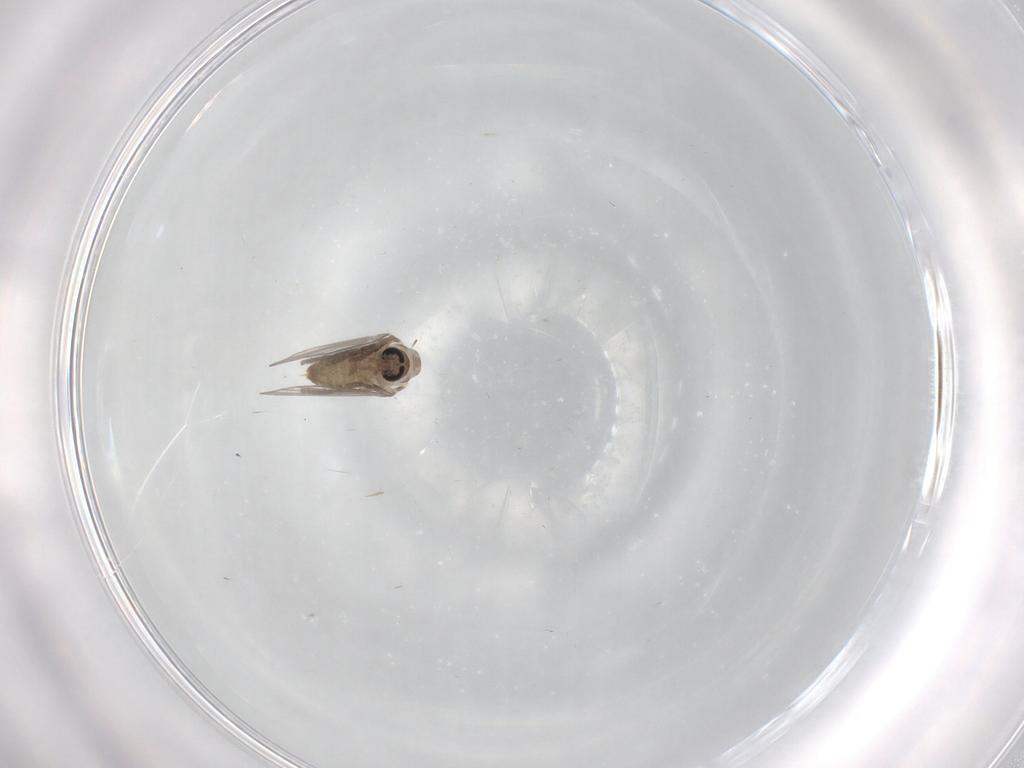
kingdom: Animalia
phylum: Arthropoda
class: Insecta
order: Diptera
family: Psychodidae
